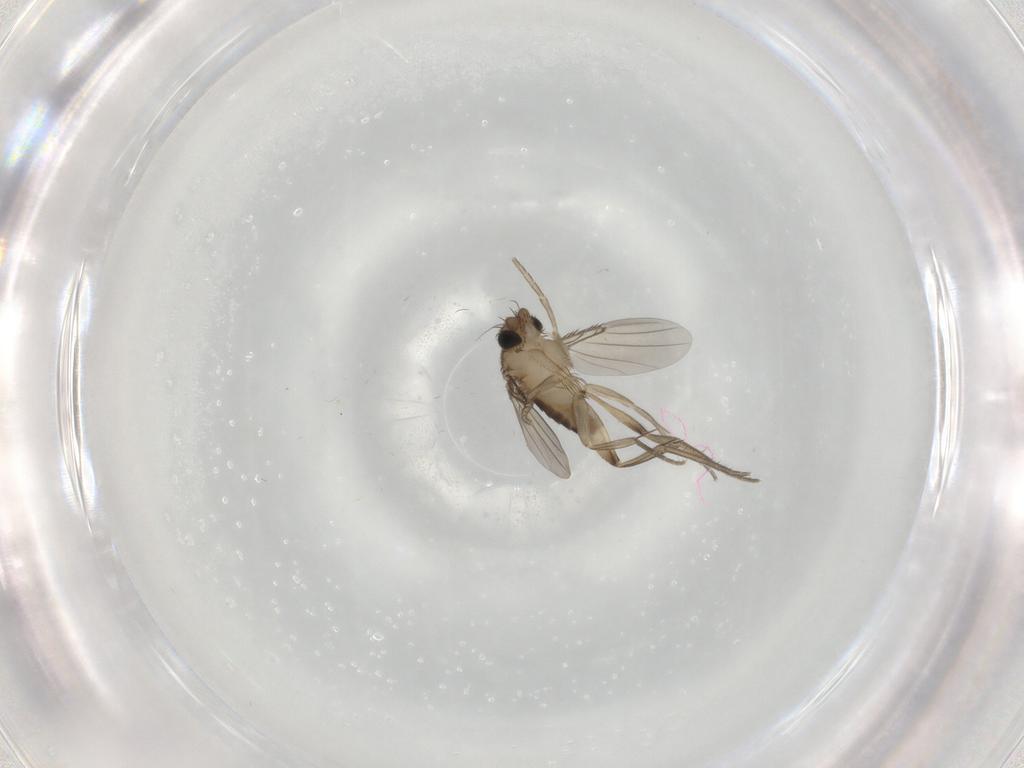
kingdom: Animalia
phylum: Arthropoda
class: Insecta
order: Diptera
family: Phoridae
